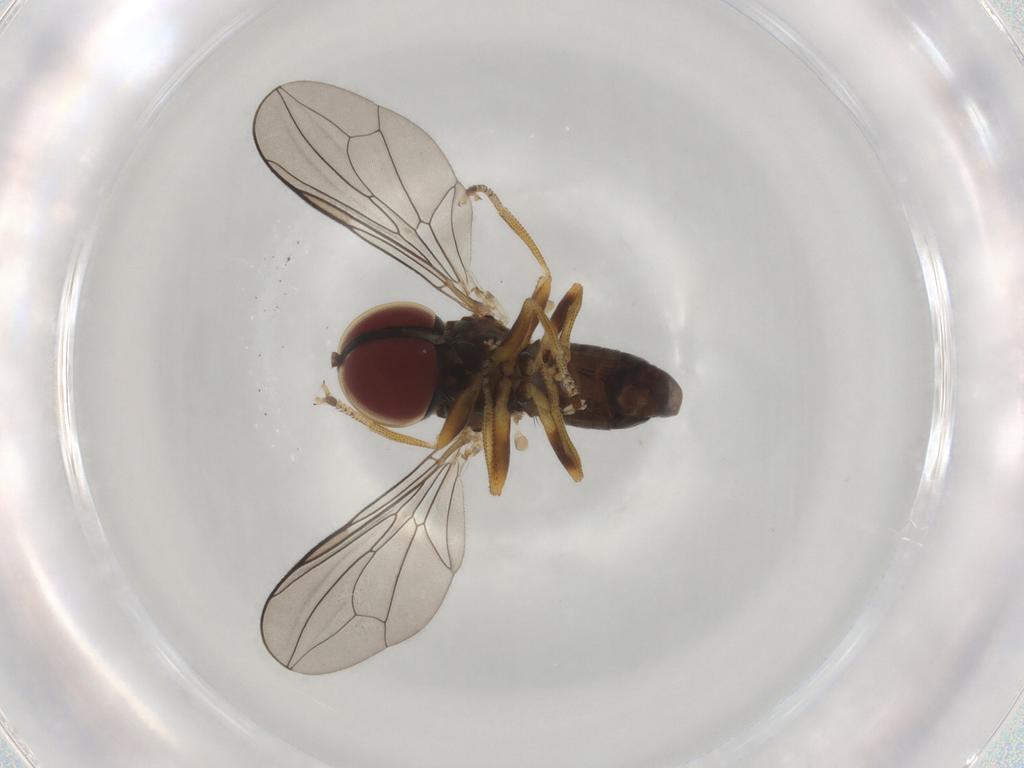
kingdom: Animalia
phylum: Arthropoda
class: Insecta
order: Diptera
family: Pipunculidae
